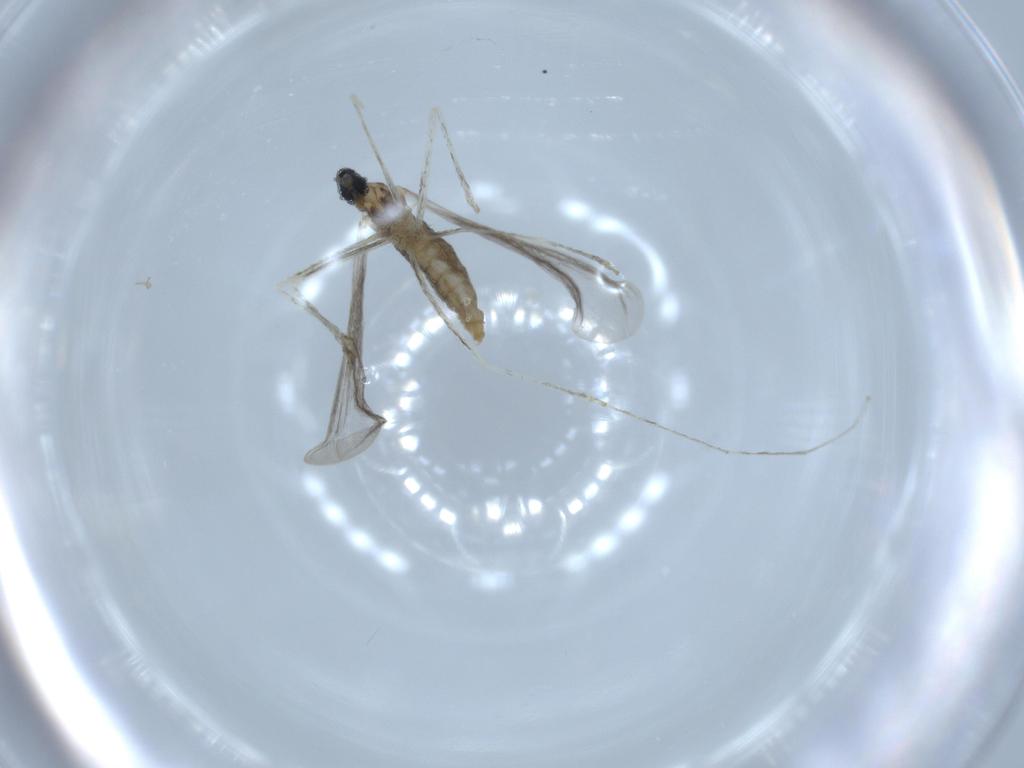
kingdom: Animalia
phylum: Arthropoda
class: Insecta
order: Diptera
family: Cecidomyiidae
